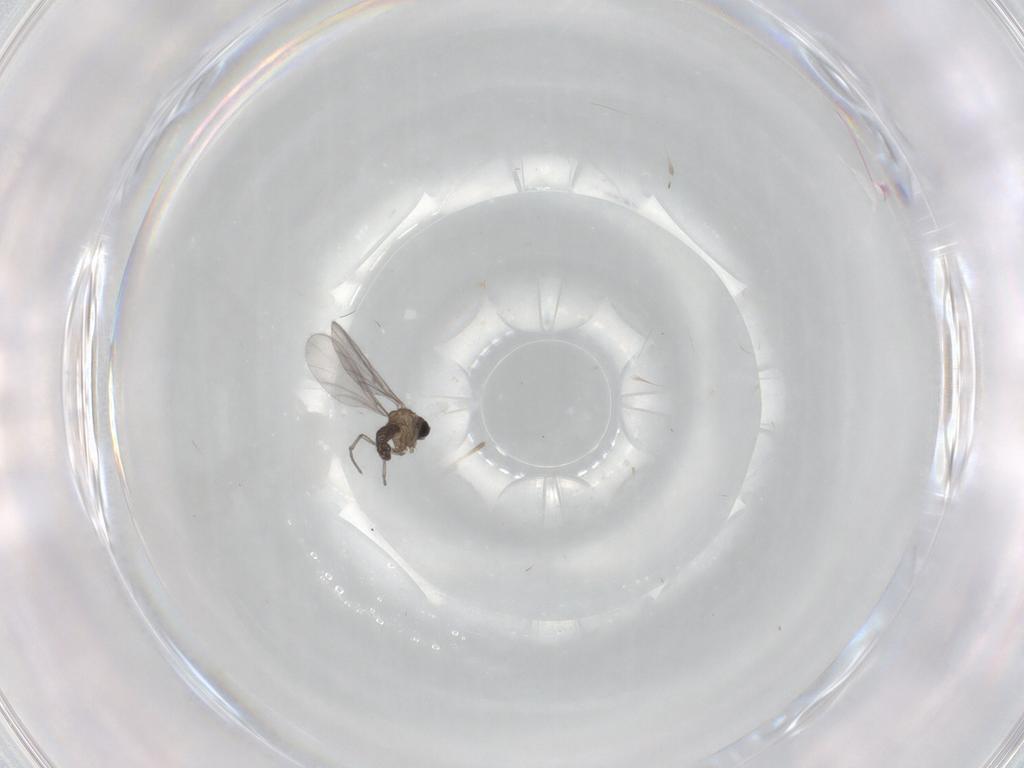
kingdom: Animalia
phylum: Arthropoda
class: Insecta
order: Diptera
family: Sciaridae
